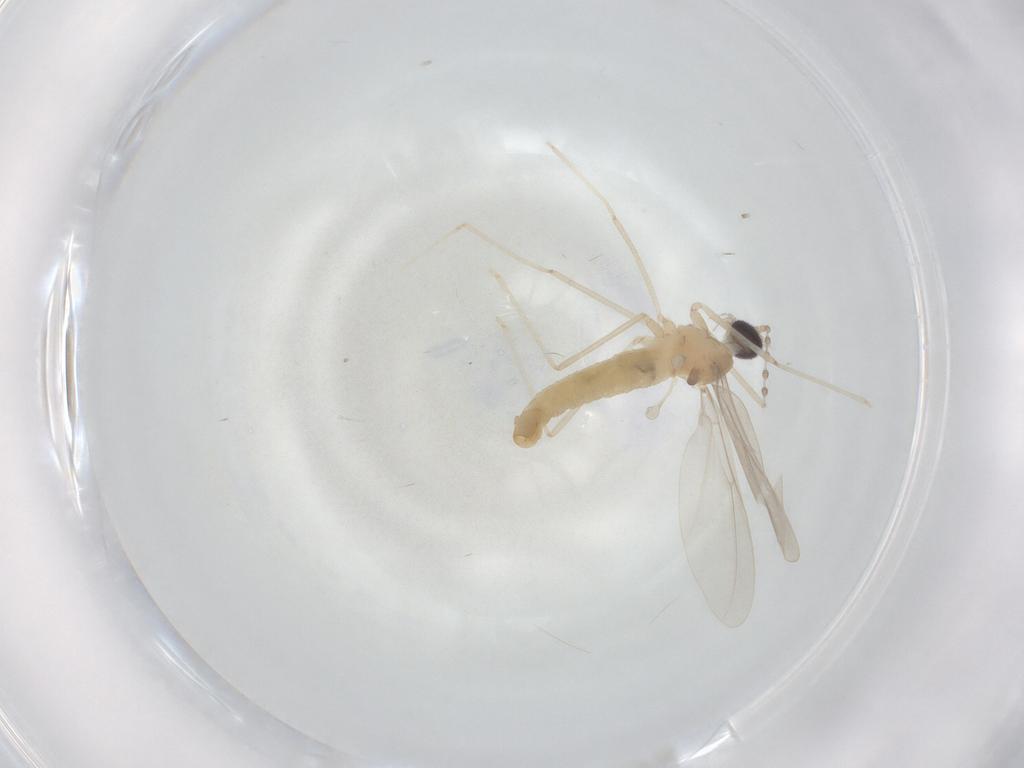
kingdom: Animalia
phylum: Arthropoda
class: Insecta
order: Diptera
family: Cecidomyiidae
